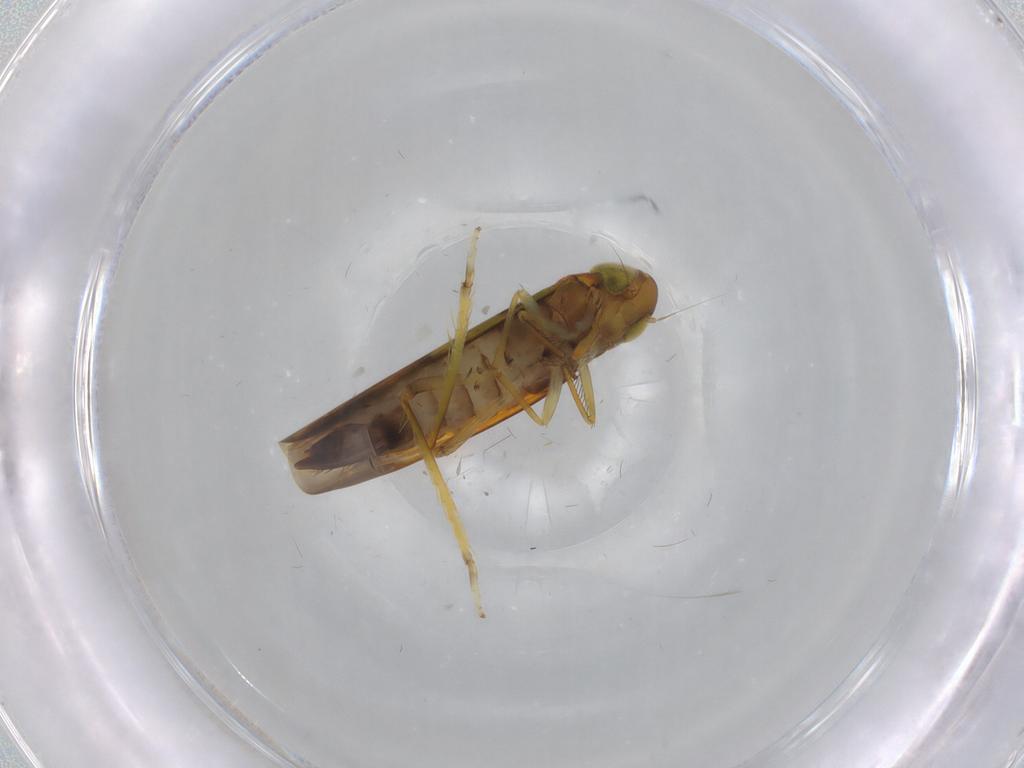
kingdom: Animalia
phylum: Arthropoda
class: Insecta
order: Hemiptera
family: Cicadellidae
